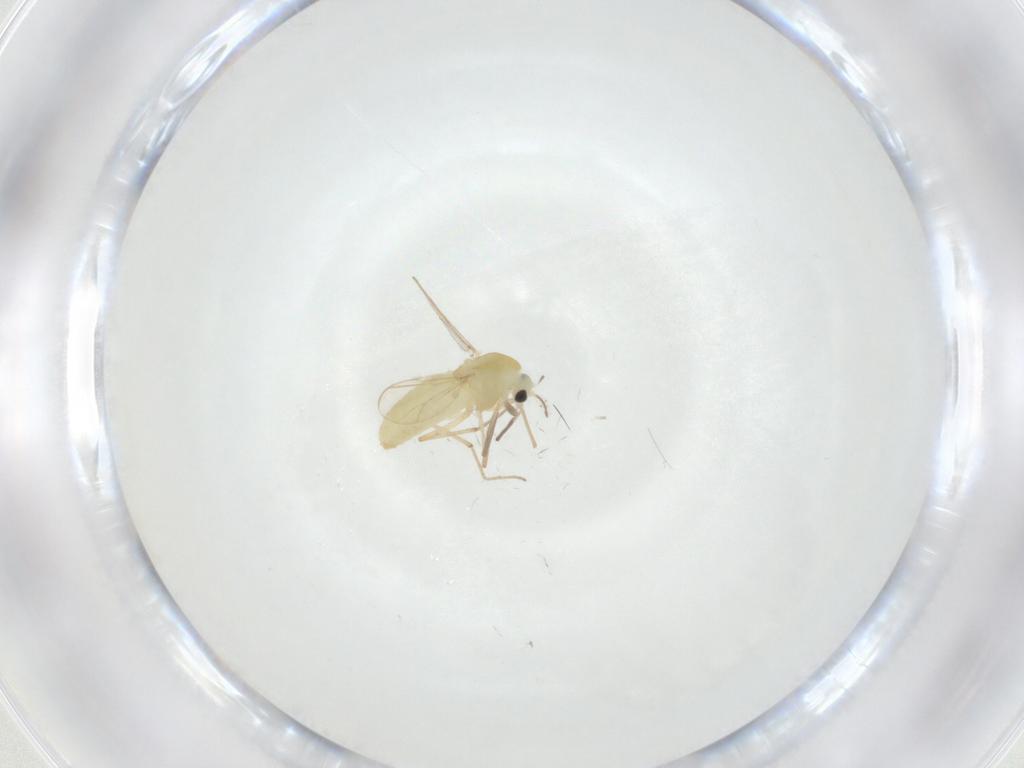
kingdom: Animalia
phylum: Arthropoda
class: Insecta
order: Diptera
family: Chironomidae
